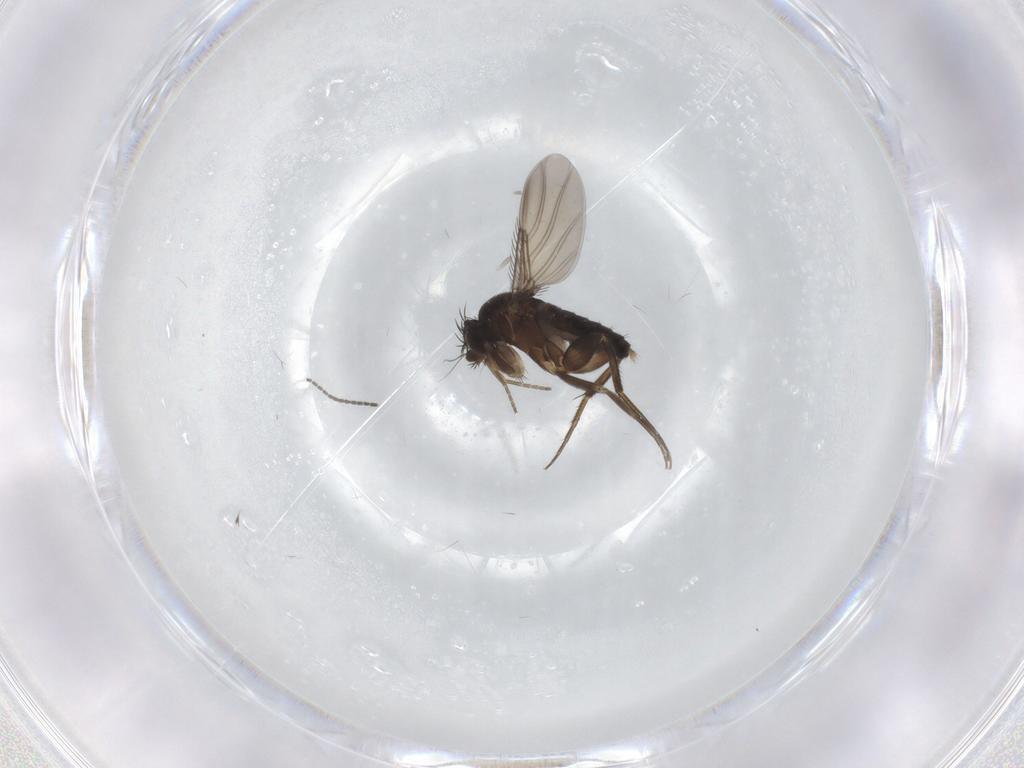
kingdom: Animalia
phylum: Arthropoda
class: Insecta
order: Diptera
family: Phoridae
